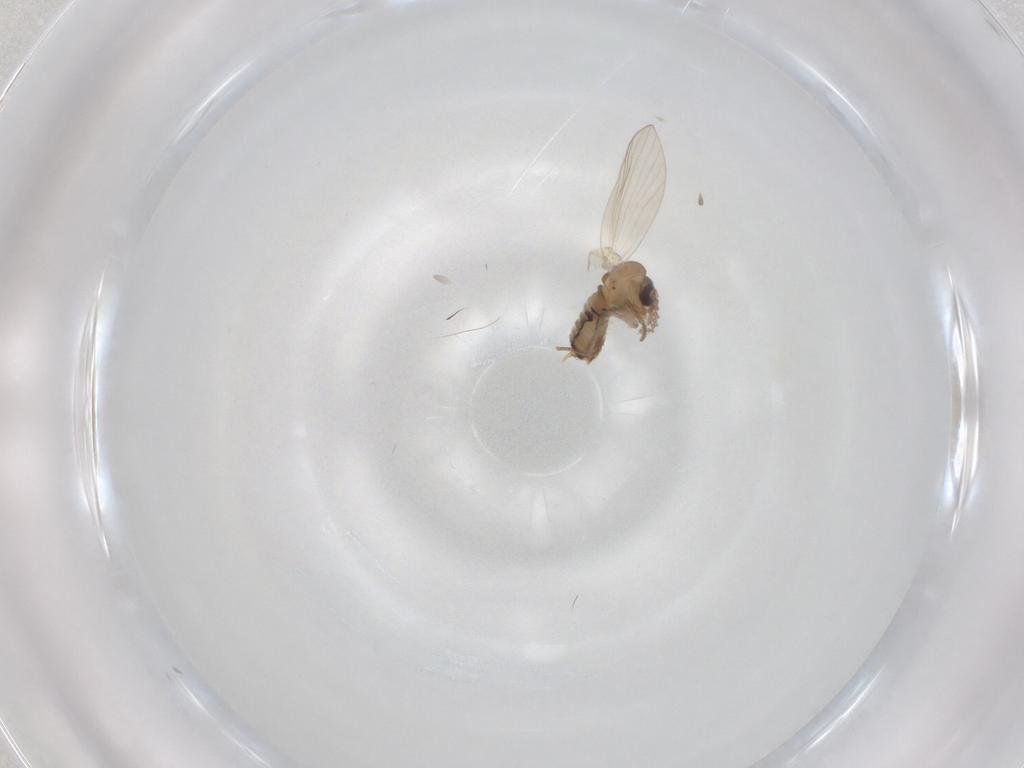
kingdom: Animalia
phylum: Arthropoda
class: Insecta
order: Diptera
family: Psychodidae
